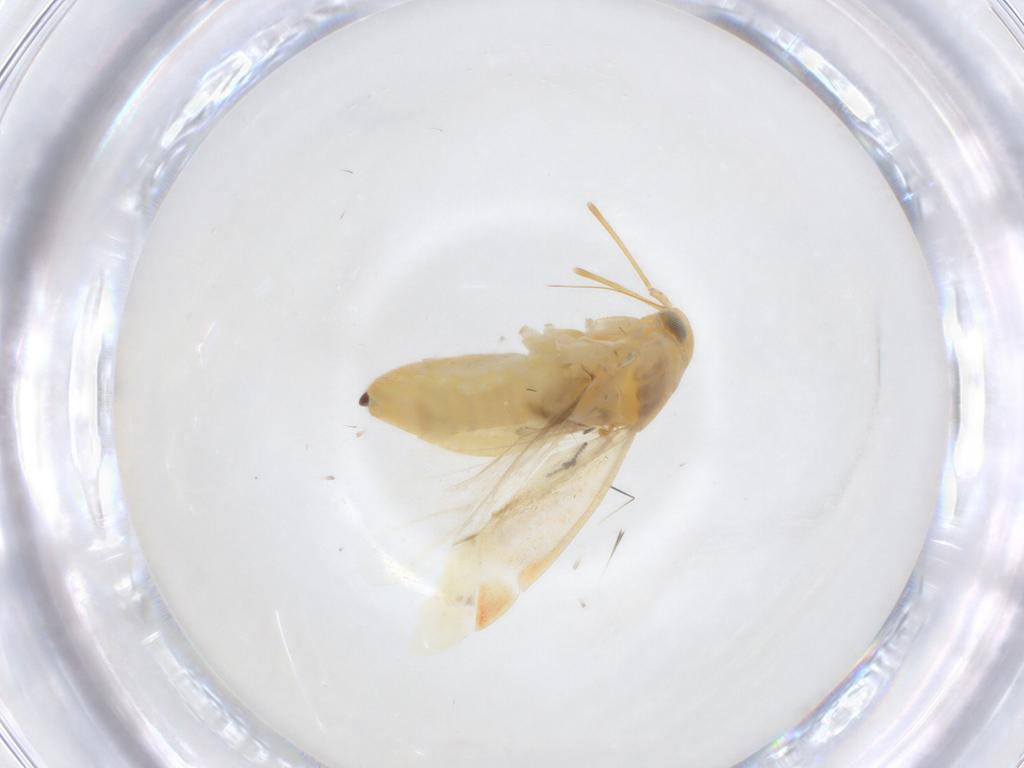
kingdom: Animalia
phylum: Arthropoda
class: Insecta
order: Hemiptera
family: Miridae
